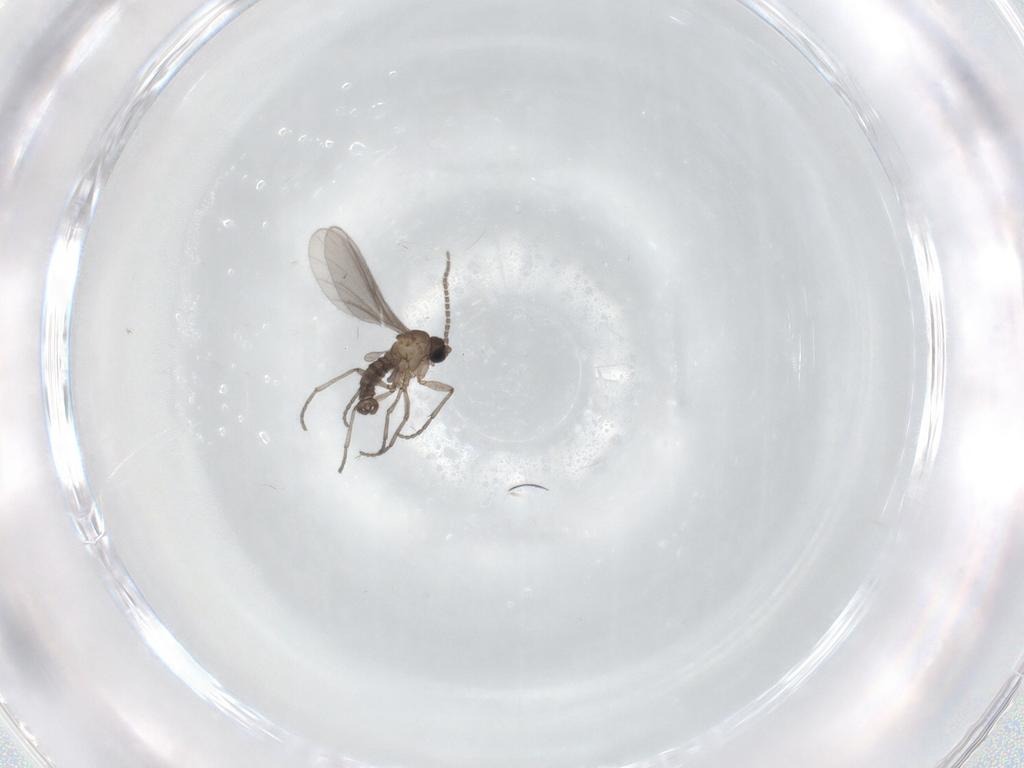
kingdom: Animalia
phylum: Arthropoda
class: Insecta
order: Diptera
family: Sciaridae
